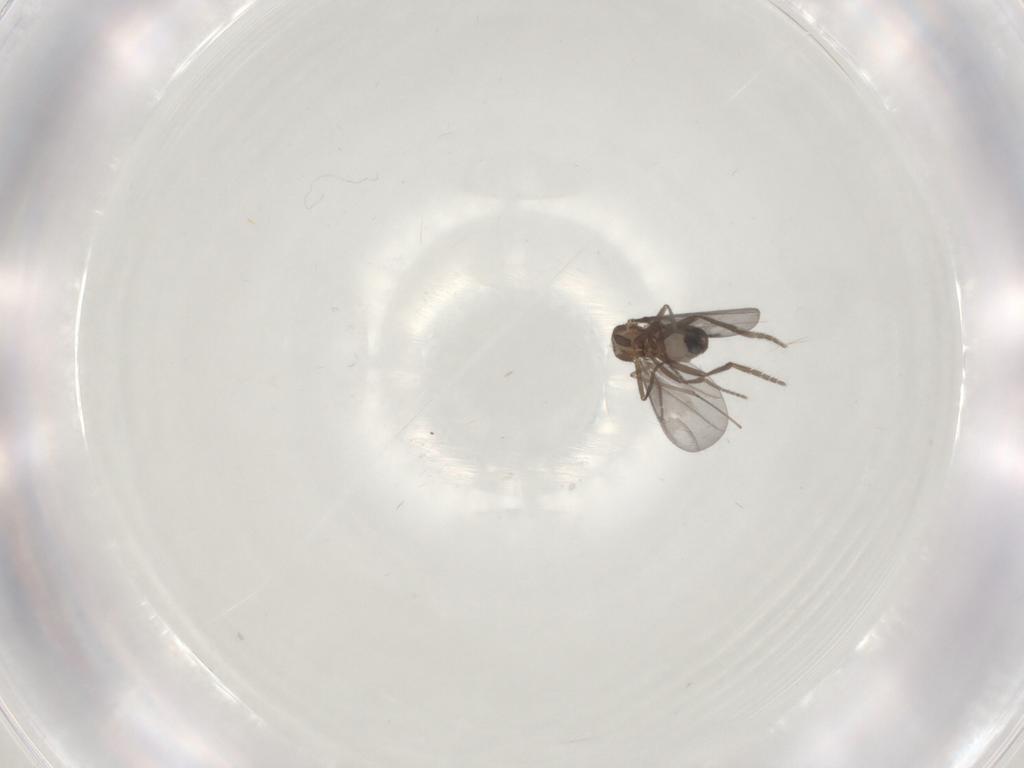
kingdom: Animalia
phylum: Arthropoda
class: Insecta
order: Diptera
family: Phoridae
